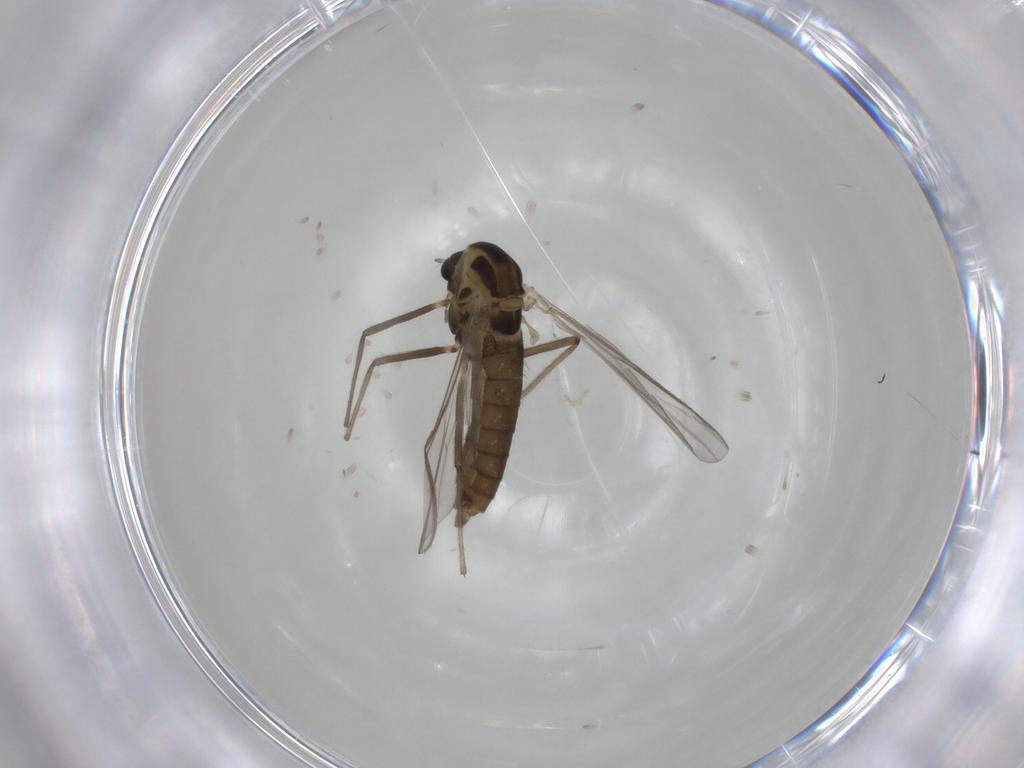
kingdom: Animalia
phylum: Arthropoda
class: Insecta
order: Diptera
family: Chironomidae
